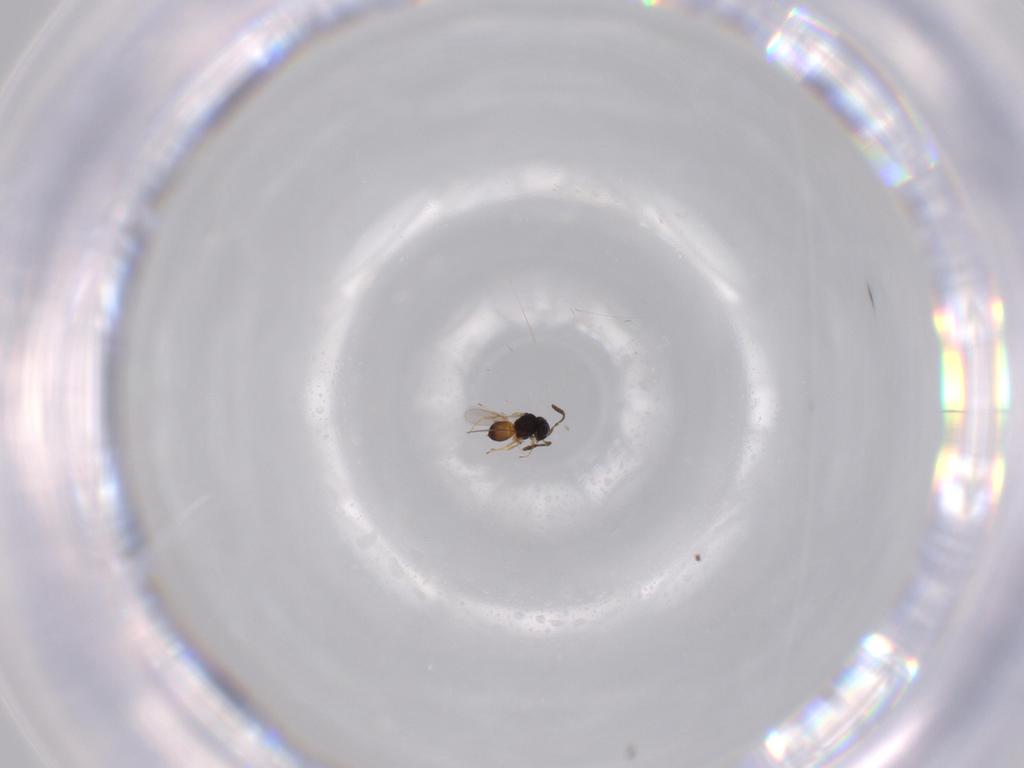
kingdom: Animalia
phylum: Arthropoda
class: Insecta
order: Hymenoptera
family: Scelionidae
